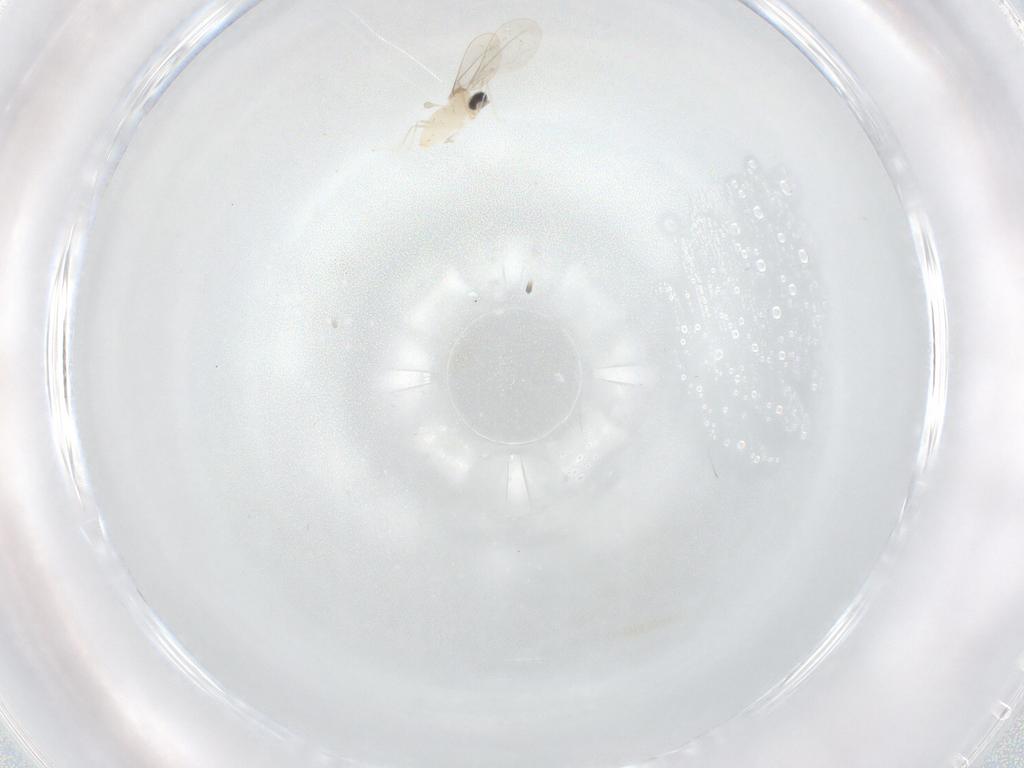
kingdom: Animalia
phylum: Arthropoda
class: Insecta
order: Diptera
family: Cecidomyiidae
